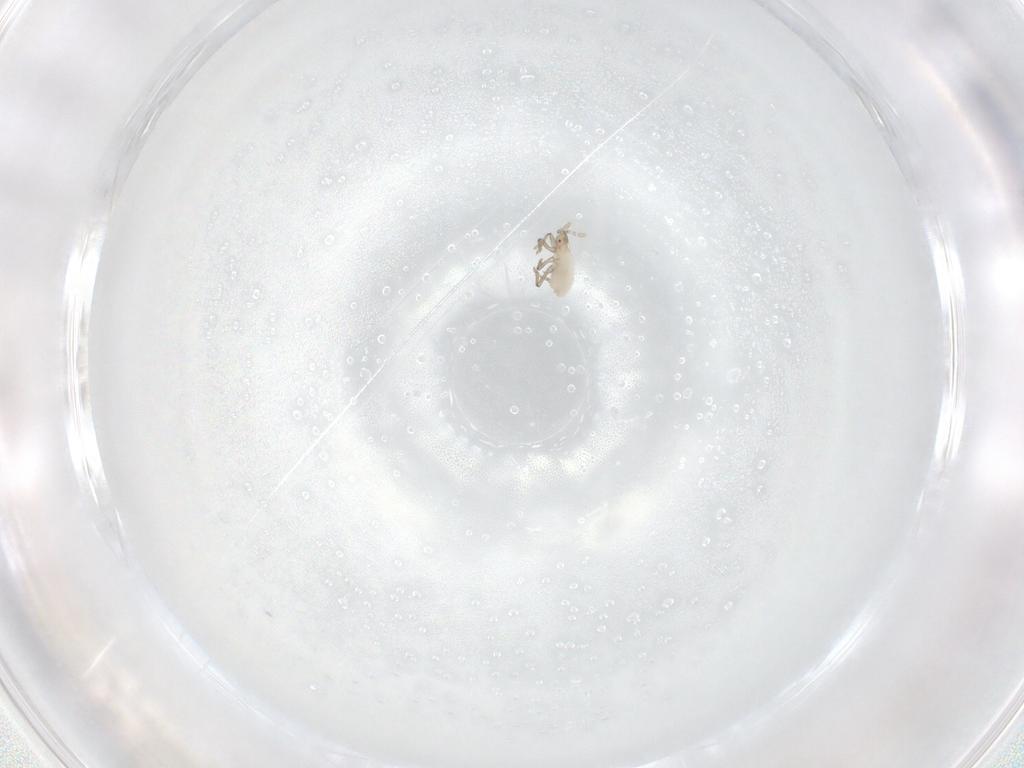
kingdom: Animalia
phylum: Arthropoda
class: Insecta
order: Hemiptera
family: Aphididae
